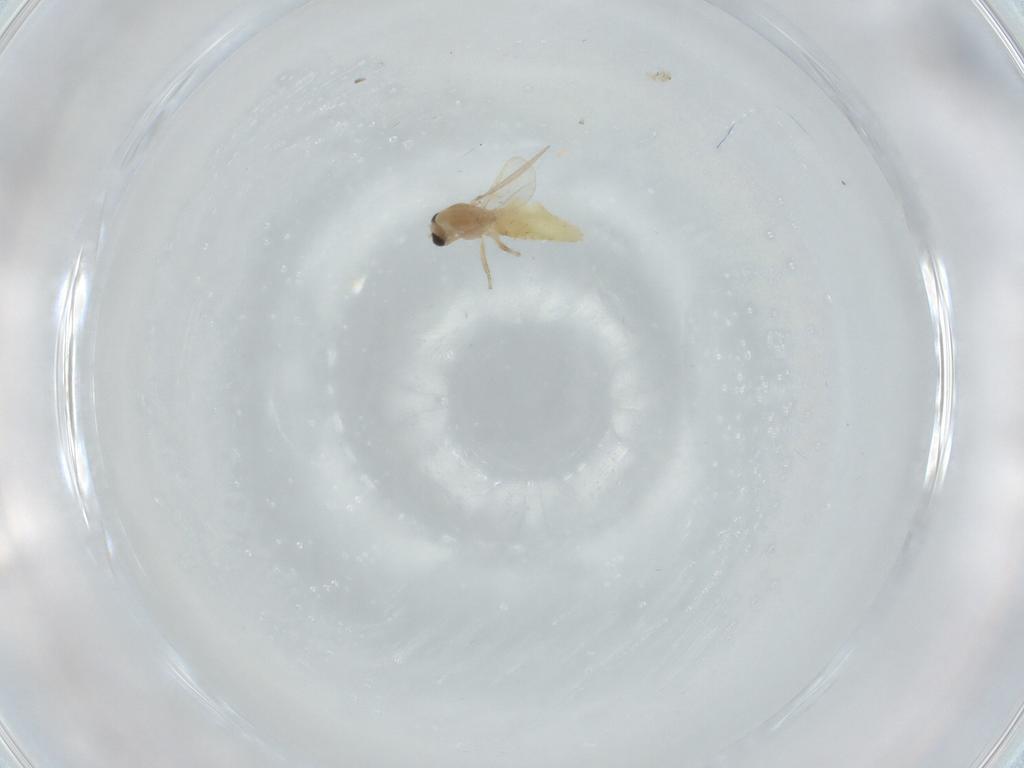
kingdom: Animalia
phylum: Arthropoda
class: Insecta
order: Diptera
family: Chironomidae
